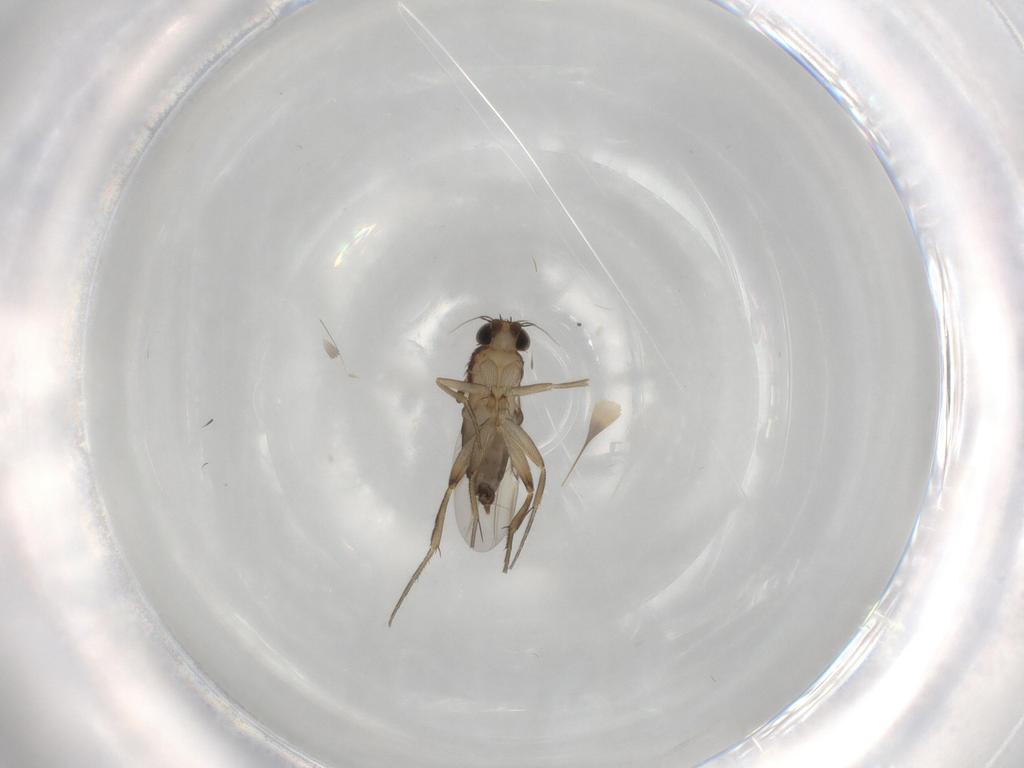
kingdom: Animalia
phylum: Arthropoda
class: Insecta
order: Diptera
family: Phoridae
